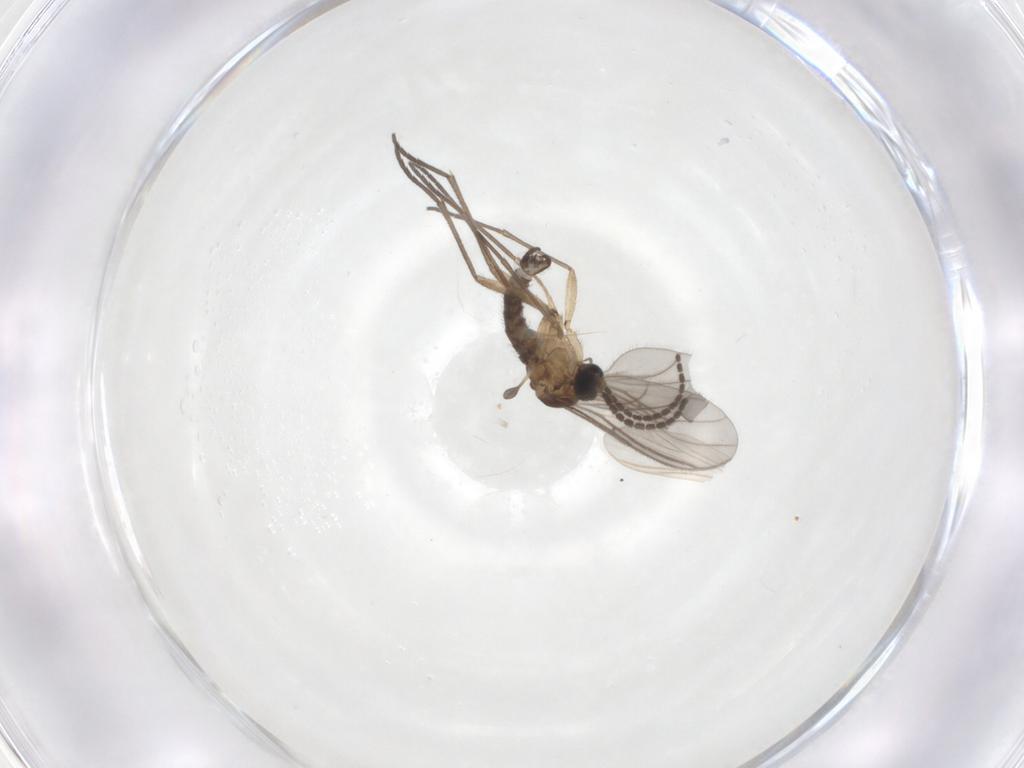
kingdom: Animalia
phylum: Arthropoda
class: Insecta
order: Diptera
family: Sciaridae
